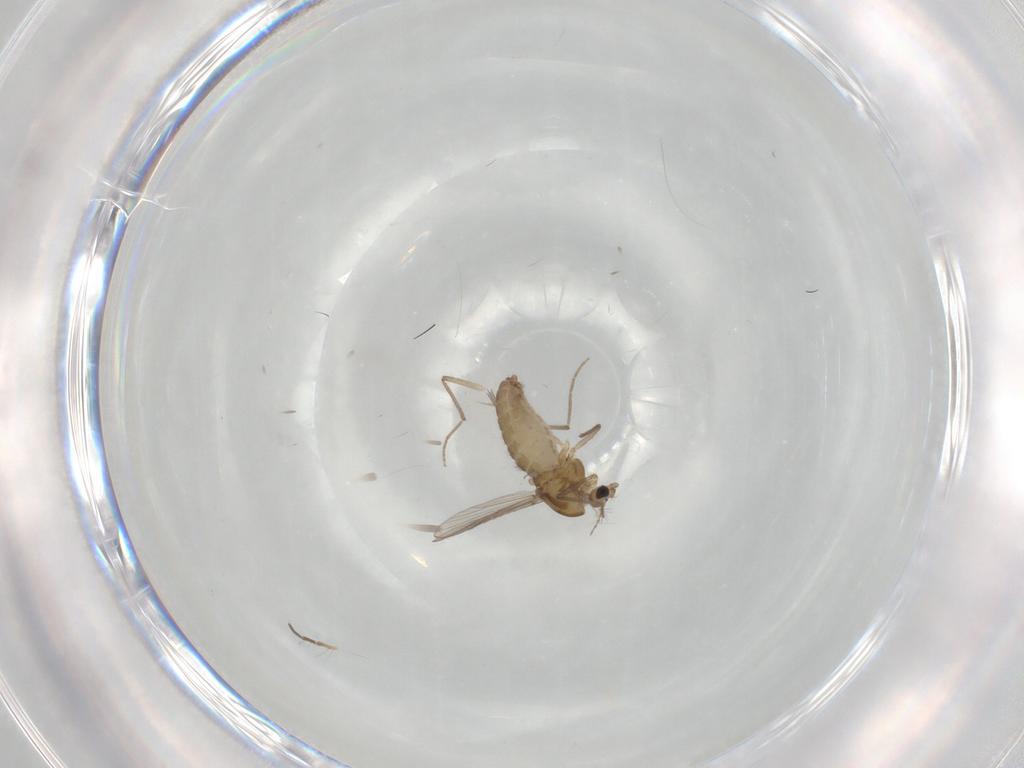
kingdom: Animalia
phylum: Arthropoda
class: Insecta
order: Diptera
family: Chironomidae
